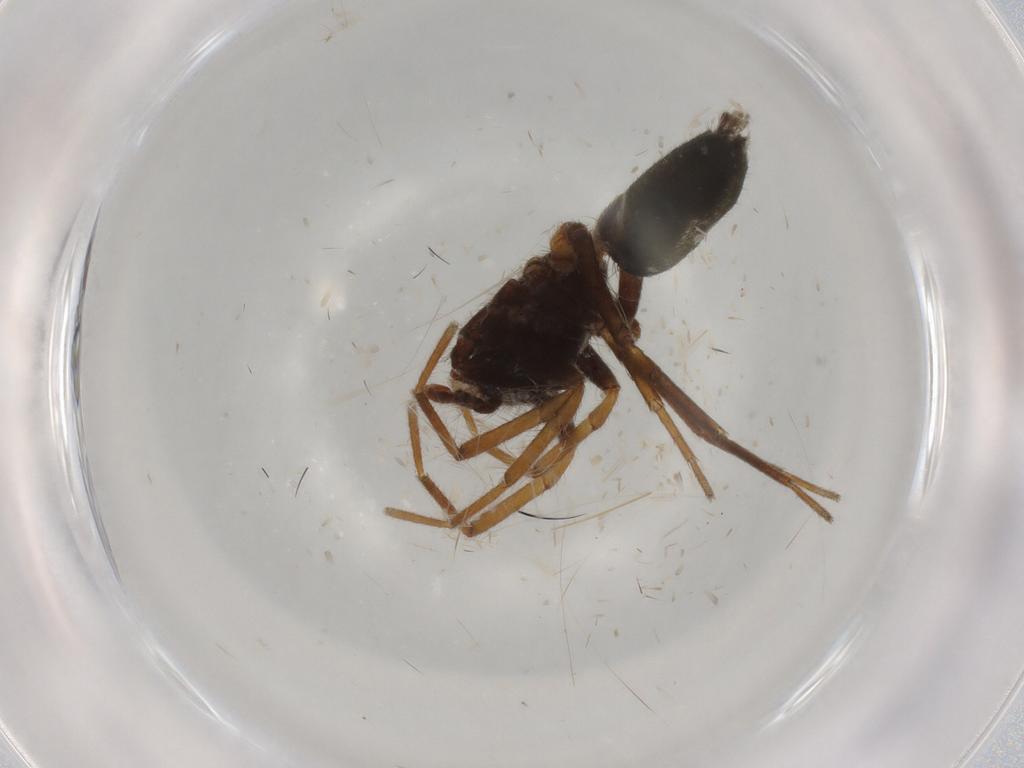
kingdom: Animalia
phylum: Arthropoda
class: Arachnida
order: Araneae
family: Gnaphosidae
